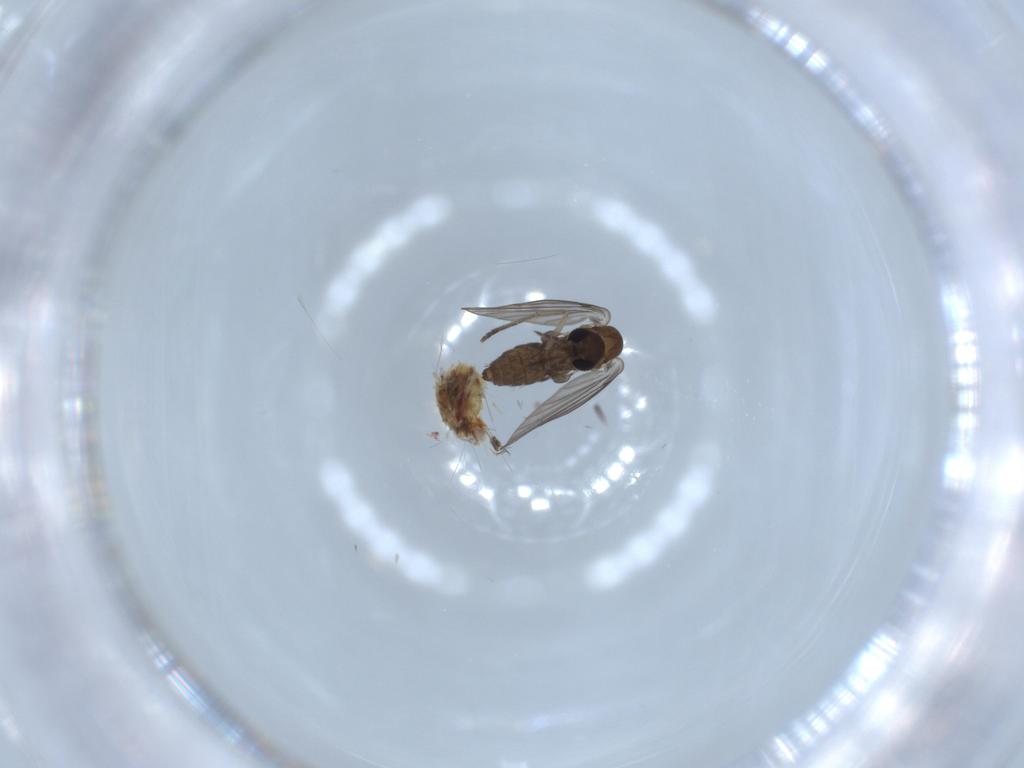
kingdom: Animalia
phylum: Arthropoda
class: Insecta
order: Diptera
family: Psychodidae
